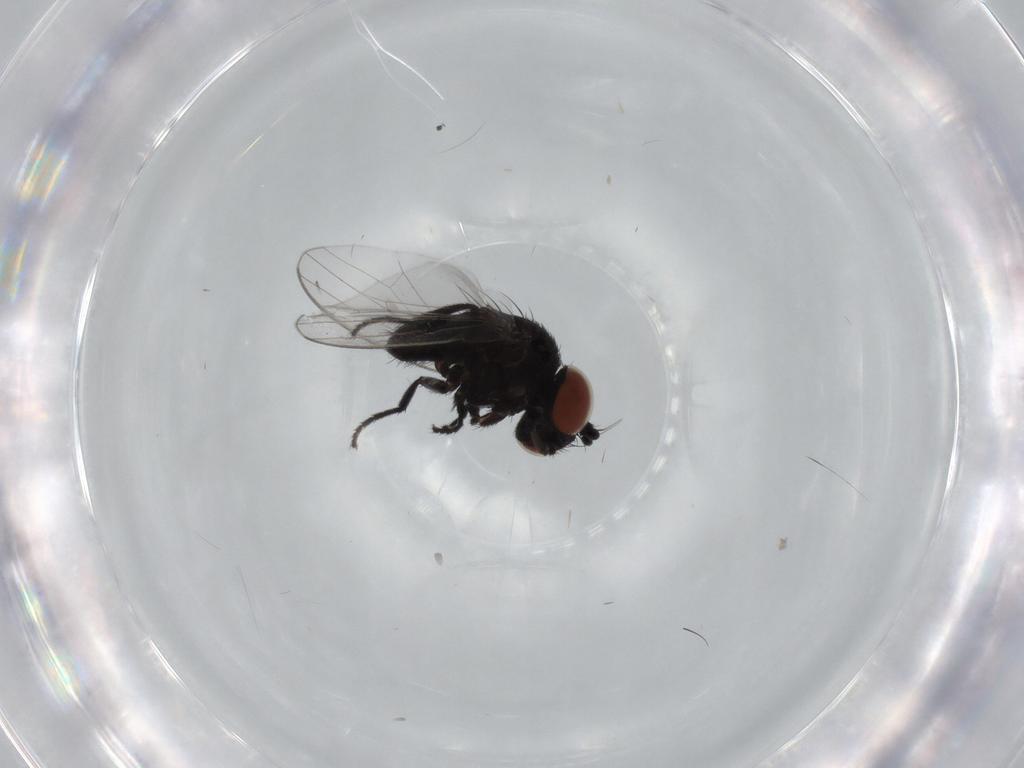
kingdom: Animalia
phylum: Arthropoda
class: Insecta
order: Diptera
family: Milichiidae
